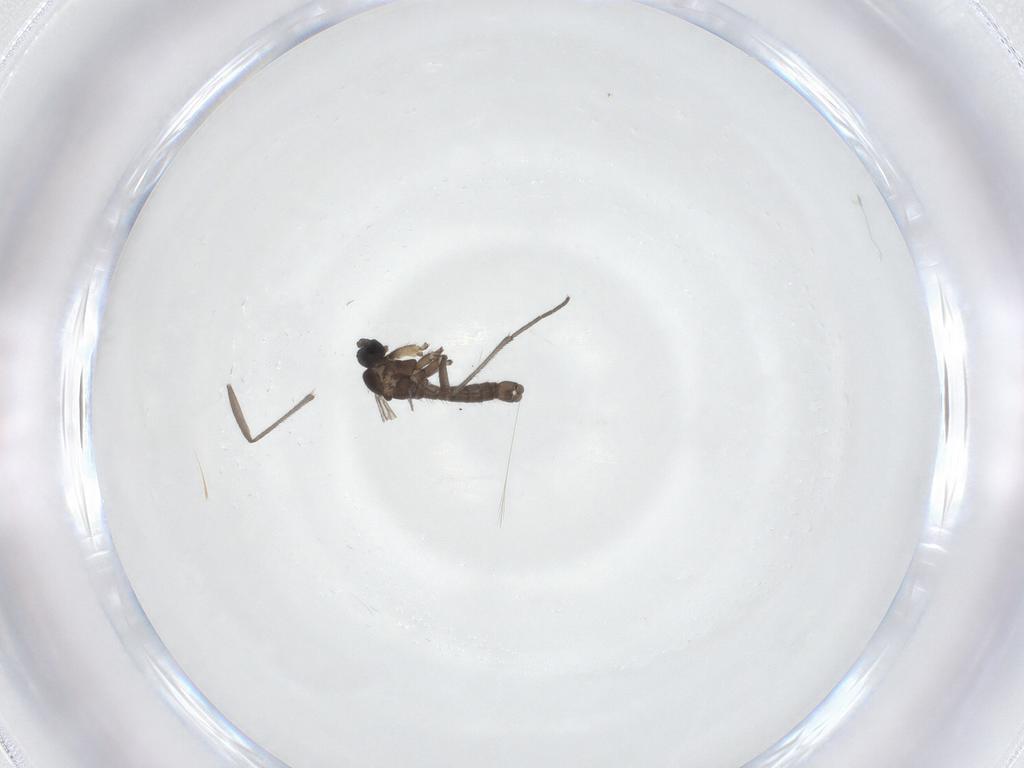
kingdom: Animalia
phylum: Arthropoda
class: Insecta
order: Diptera
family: Sciaridae
